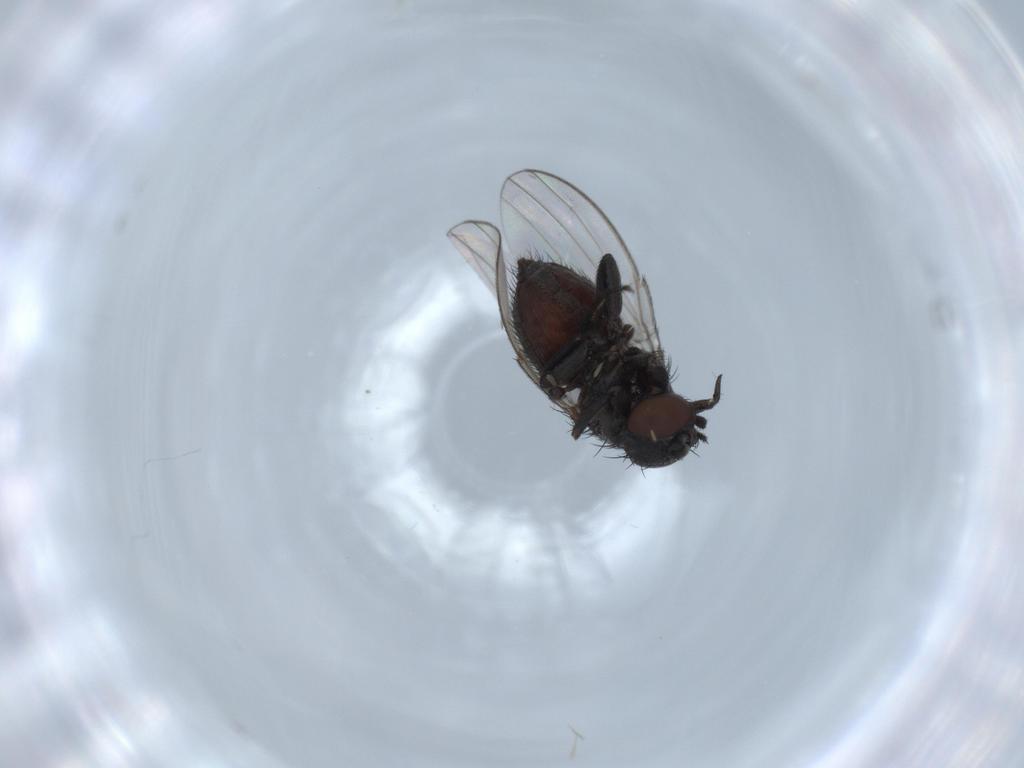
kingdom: Animalia
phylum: Arthropoda
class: Insecta
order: Diptera
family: Milichiidae
